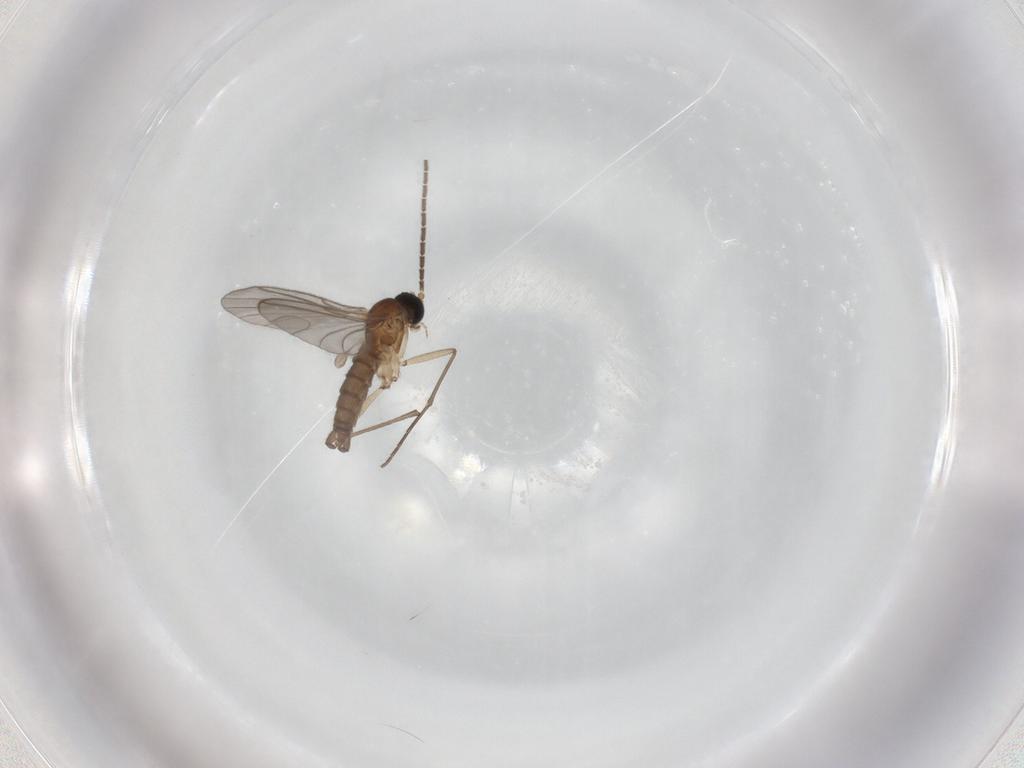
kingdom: Animalia
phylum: Arthropoda
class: Insecta
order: Diptera
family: Sciaridae
